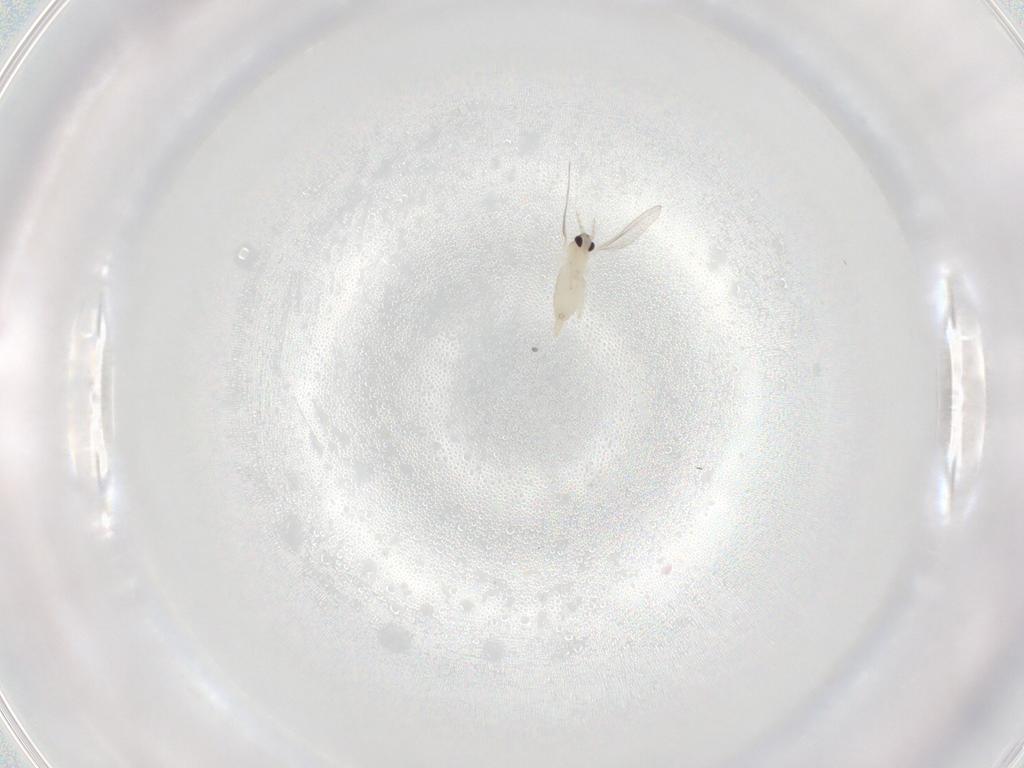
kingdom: Animalia
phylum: Arthropoda
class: Insecta
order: Diptera
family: Cecidomyiidae
